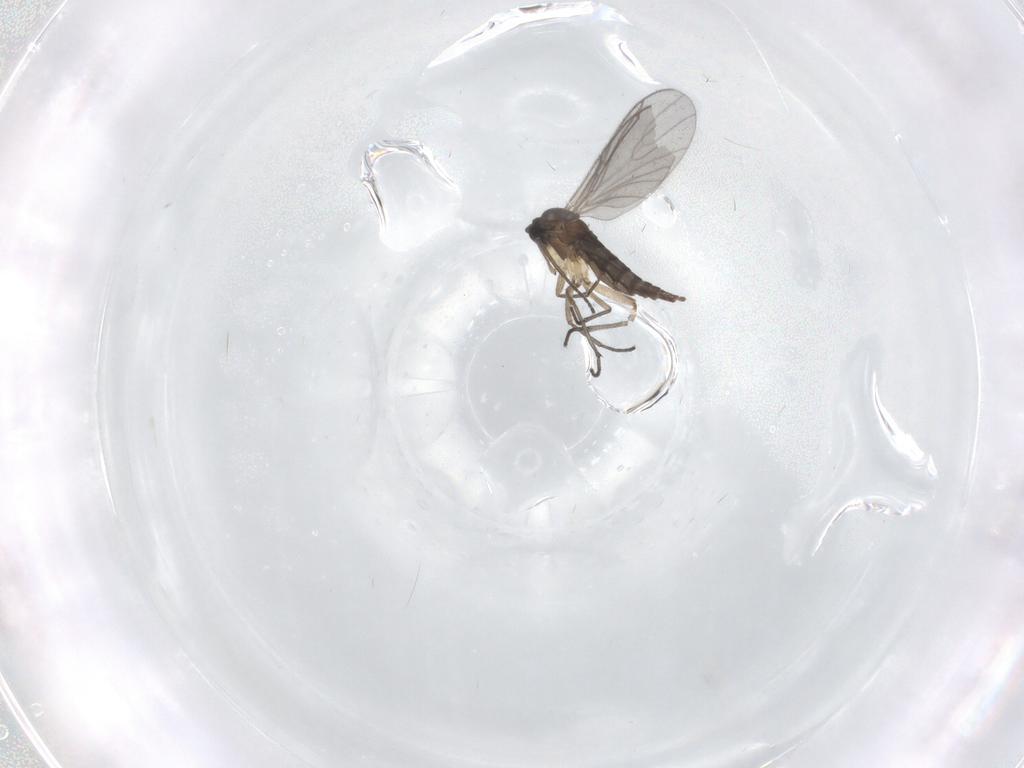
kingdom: Animalia
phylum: Arthropoda
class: Insecta
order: Diptera
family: Sciaridae
